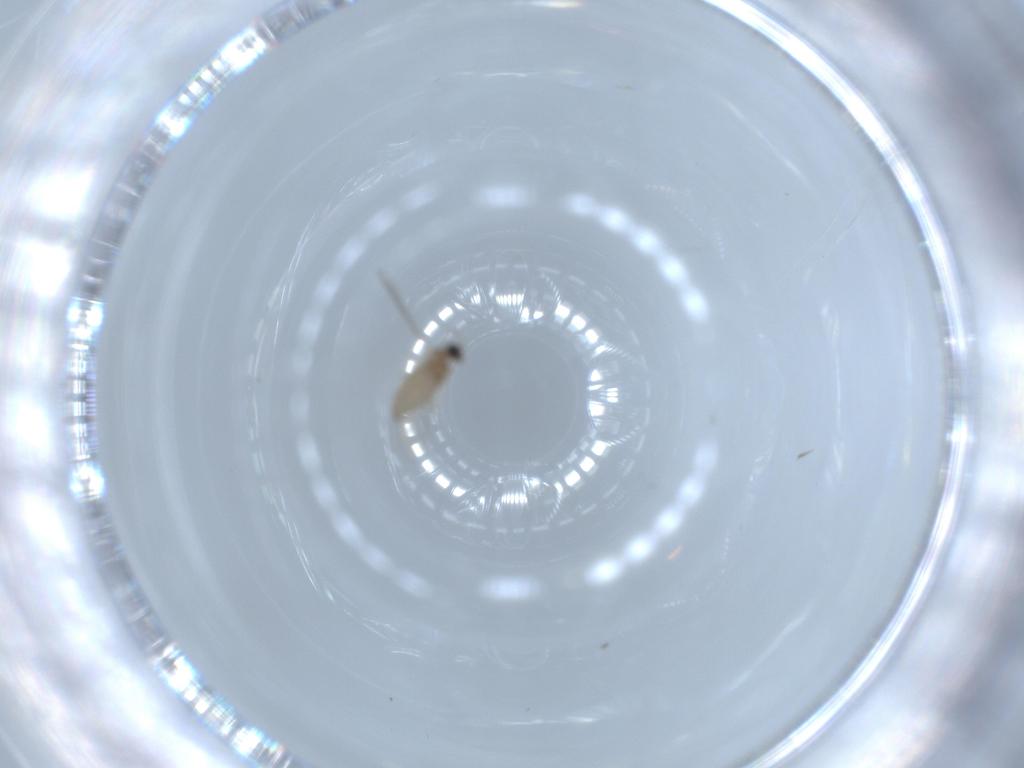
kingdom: Animalia
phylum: Arthropoda
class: Insecta
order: Diptera
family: Cecidomyiidae
